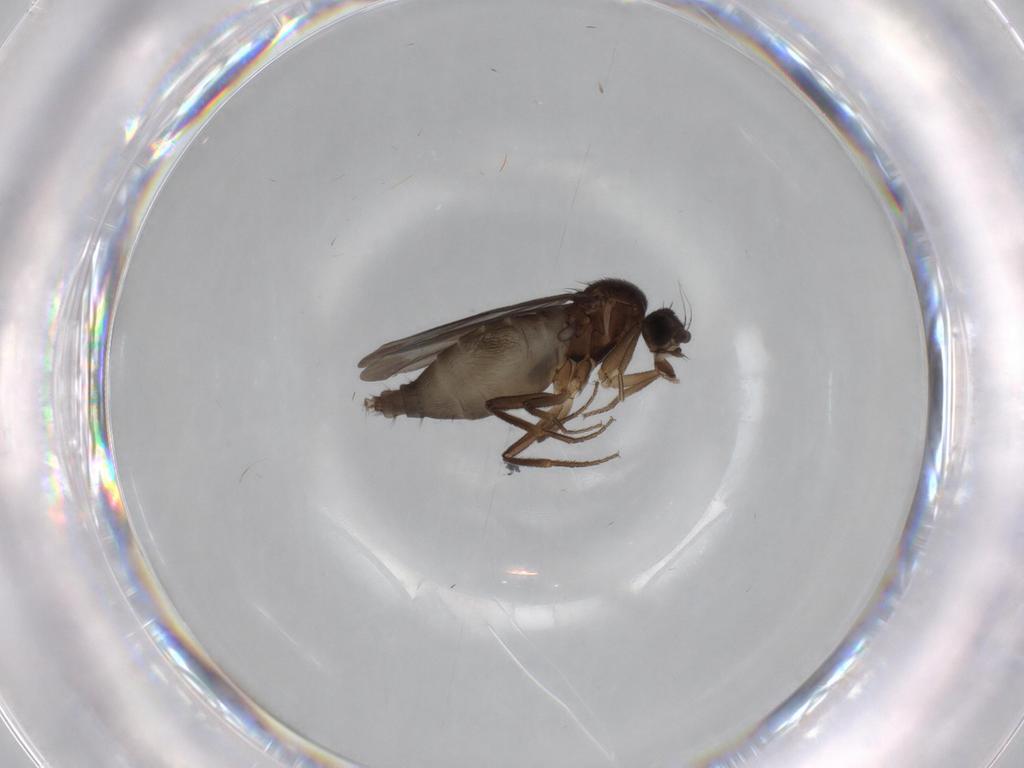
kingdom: Animalia
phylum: Arthropoda
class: Insecta
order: Diptera
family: Phoridae
